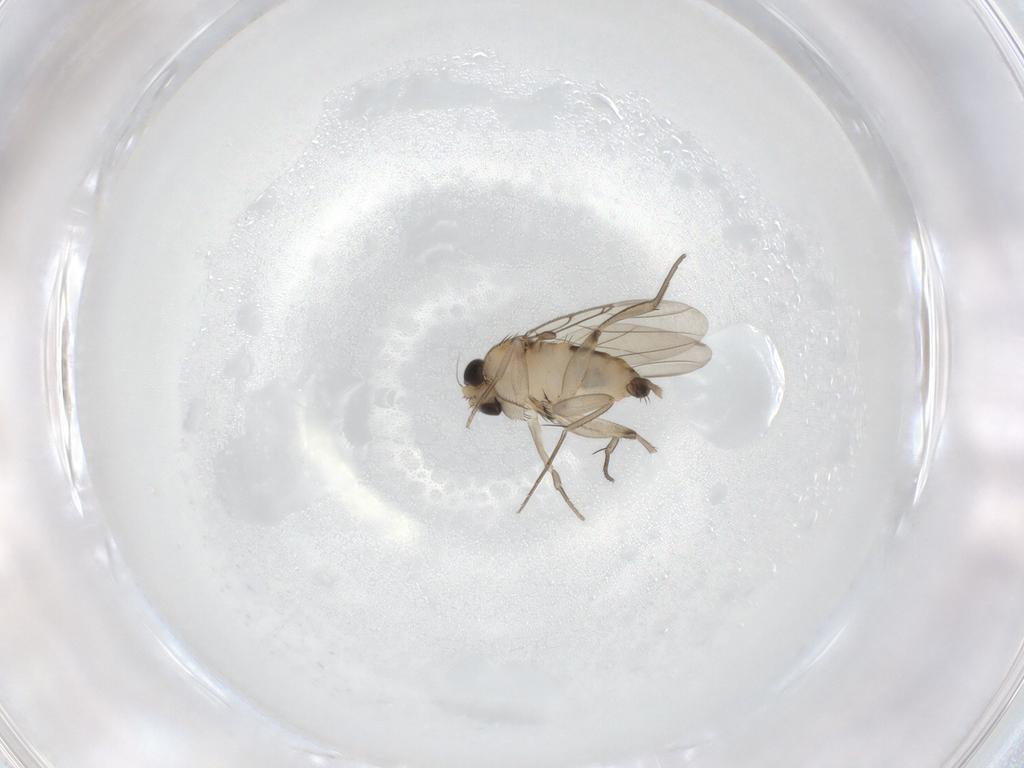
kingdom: Animalia
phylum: Arthropoda
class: Insecta
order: Diptera
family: Phoridae
